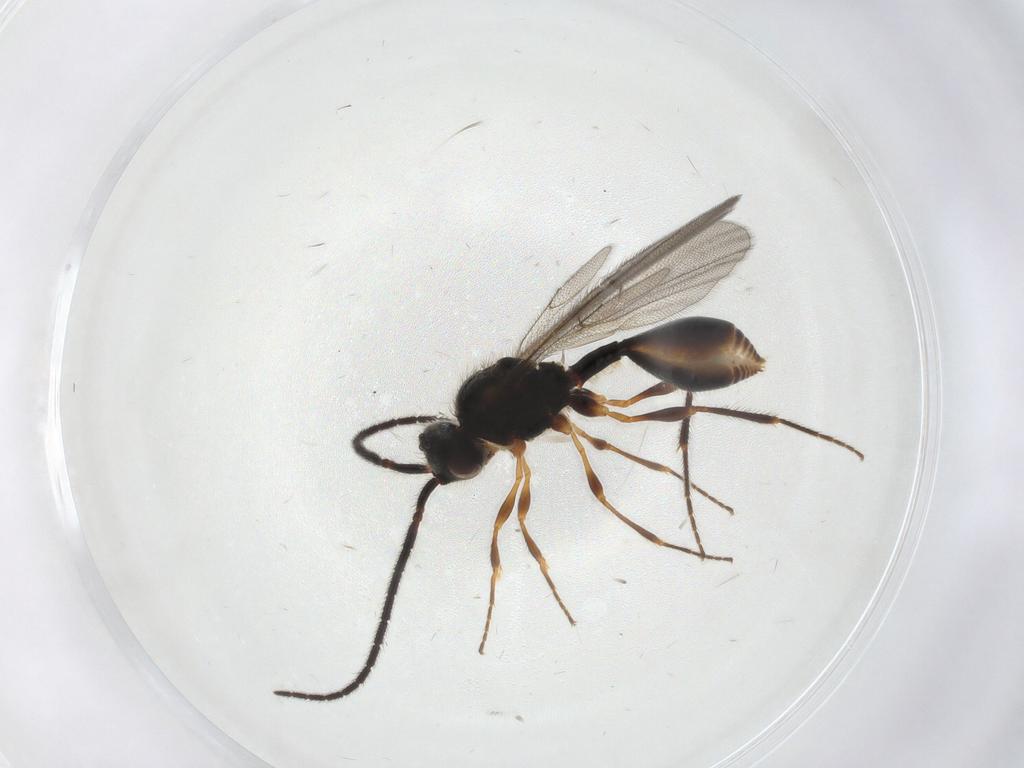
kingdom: Animalia
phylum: Arthropoda
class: Insecta
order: Hymenoptera
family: Diapriidae
